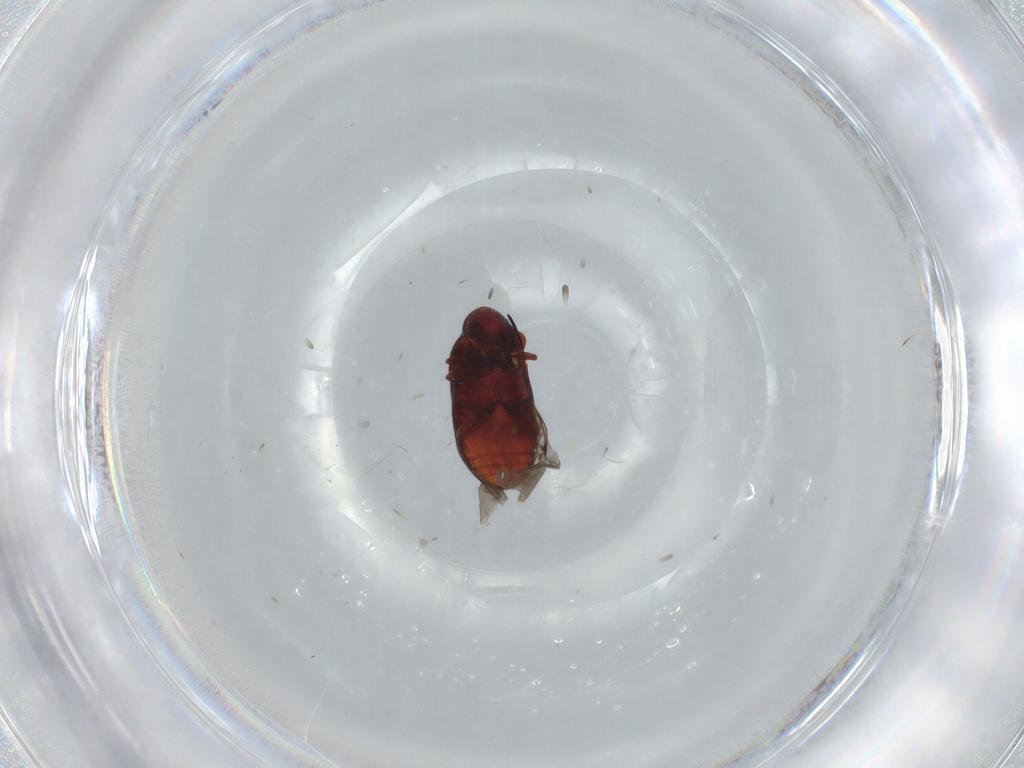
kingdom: Animalia
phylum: Arthropoda
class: Insecta
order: Coleoptera
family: Ptinidae
